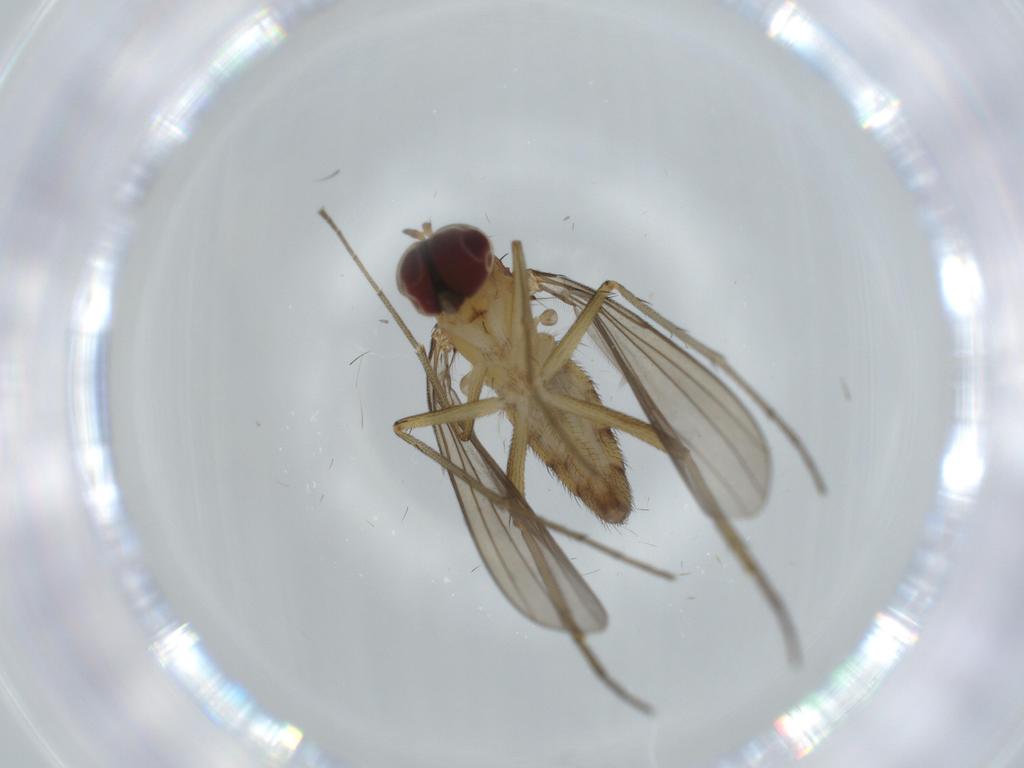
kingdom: Animalia
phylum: Arthropoda
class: Insecta
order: Diptera
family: Dolichopodidae
